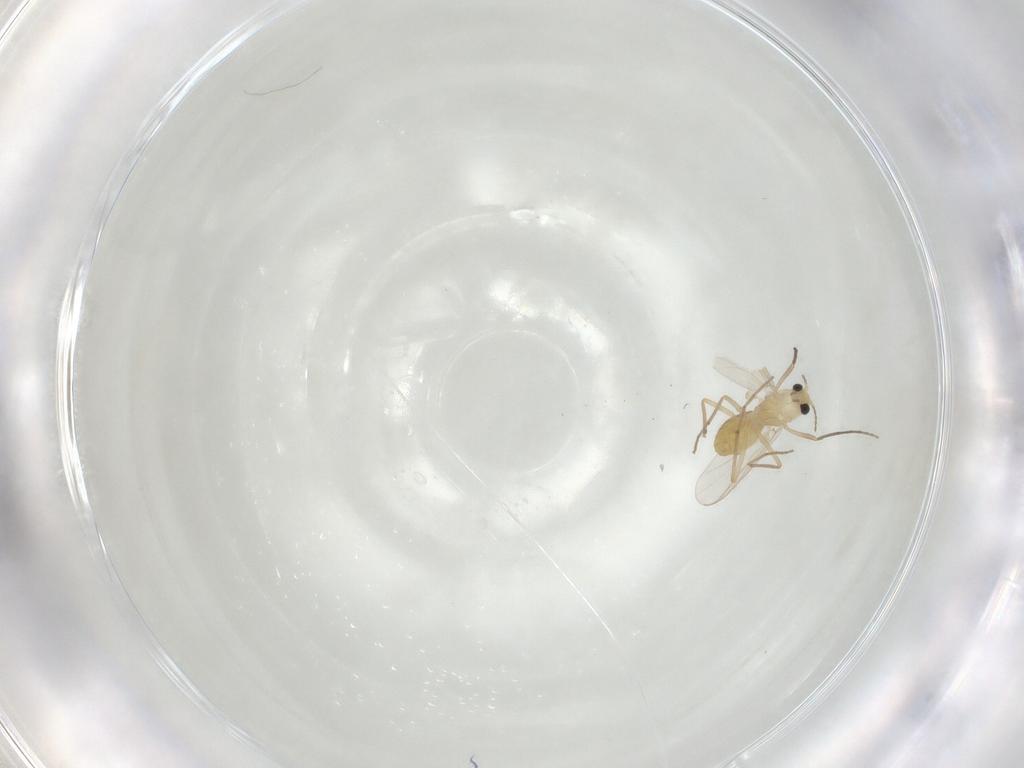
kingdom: Animalia
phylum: Arthropoda
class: Insecta
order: Diptera
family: Chironomidae
